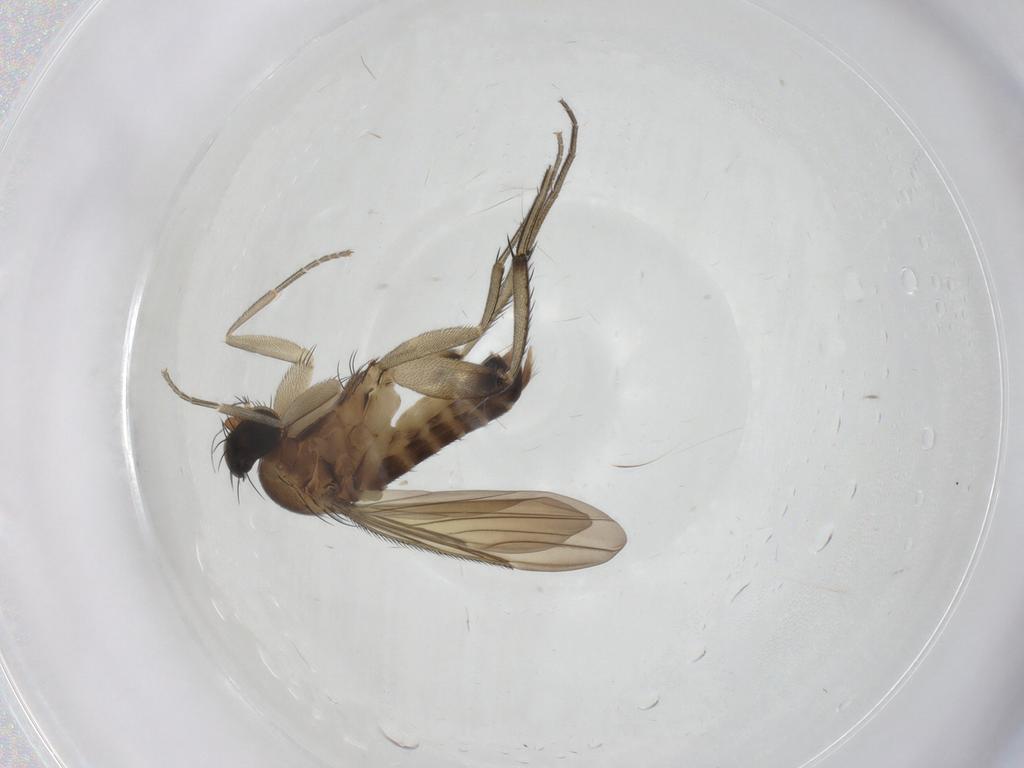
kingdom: Animalia
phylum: Arthropoda
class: Insecta
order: Diptera
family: Phoridae
